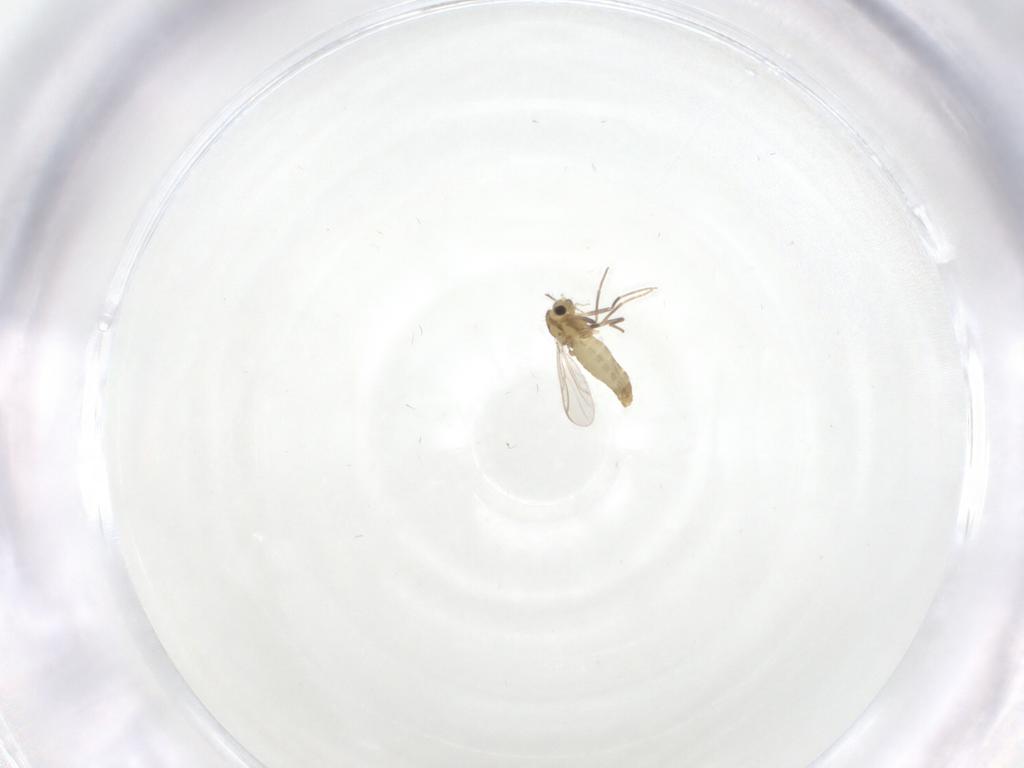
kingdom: Animalia
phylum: Arthropoda
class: Insecta
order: Diptera
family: Chironomidae
